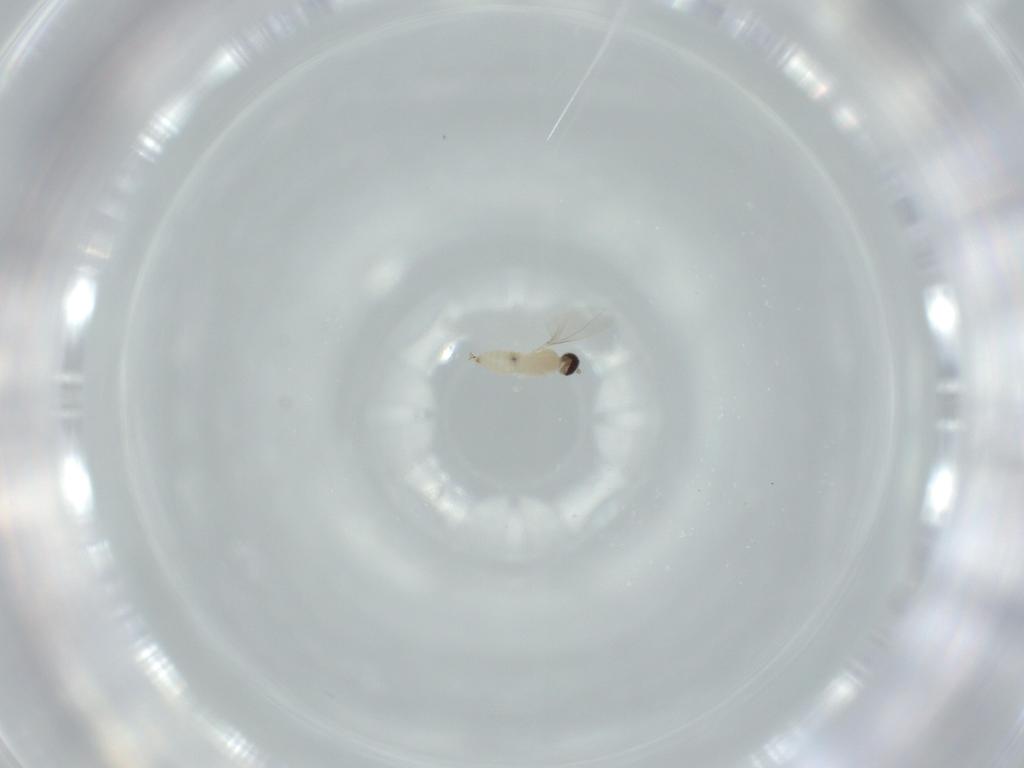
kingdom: Animalia
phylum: Arthropoda
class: Insecta
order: Diptera
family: Cecidomyiidae
